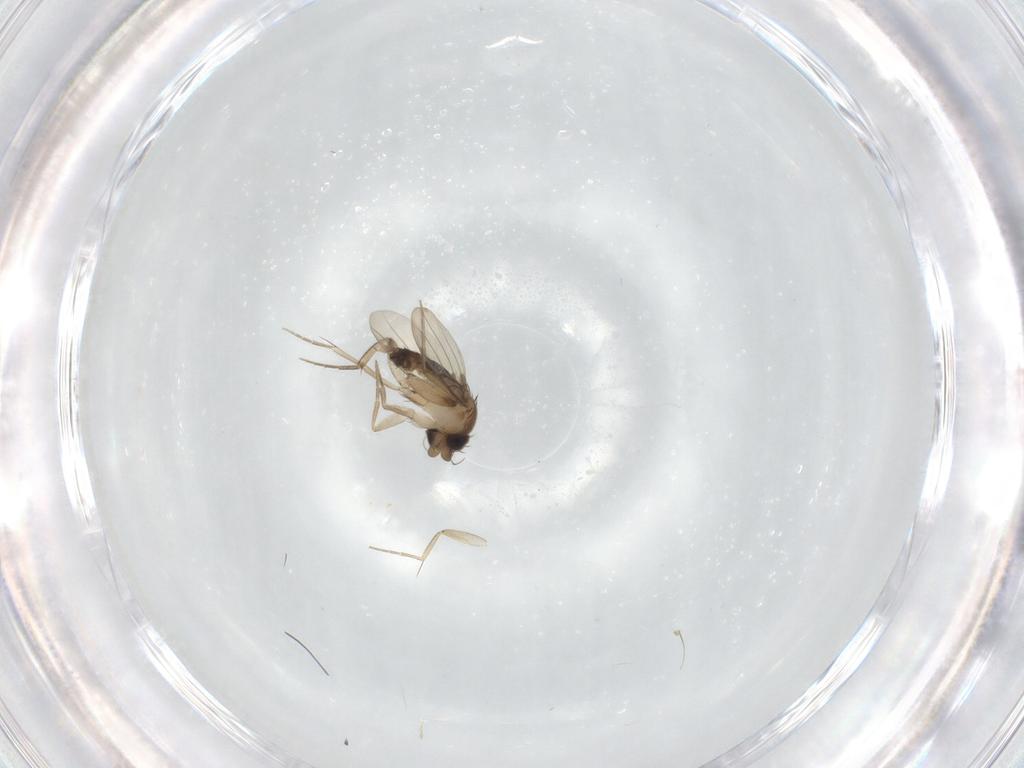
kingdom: Animalia
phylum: Arthropoda
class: Insecta
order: Diptera
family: Phoridae
